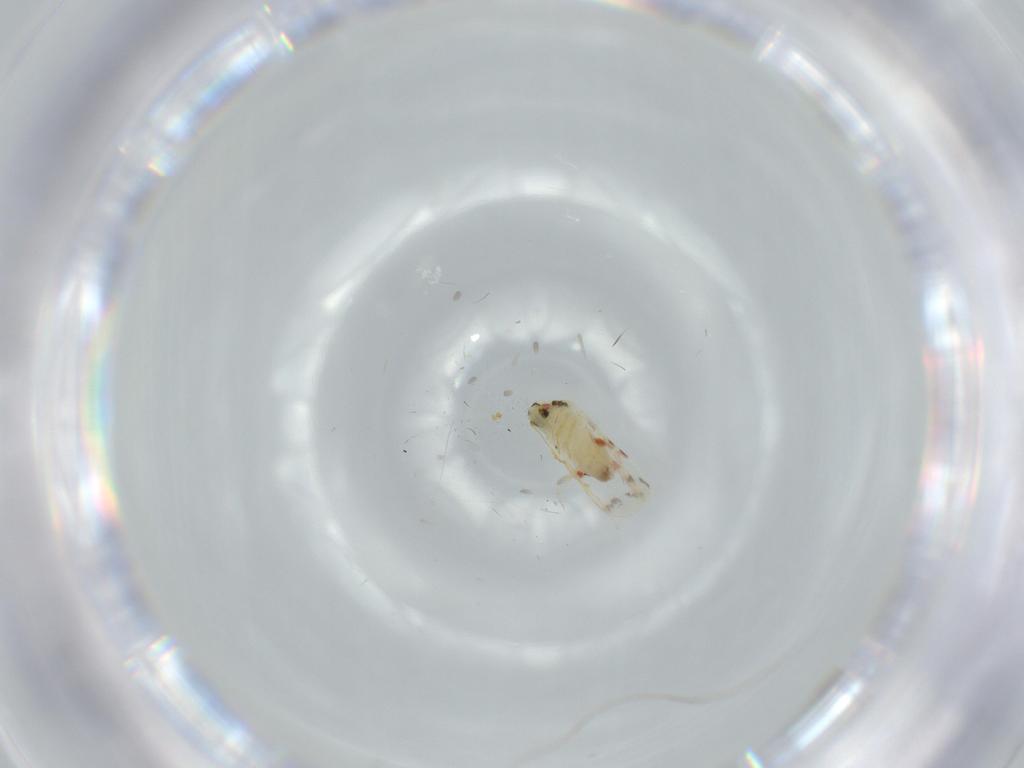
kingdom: Animalia
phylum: Arthropoda
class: Insecta
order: Hemiptera
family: Aleyrodidae
